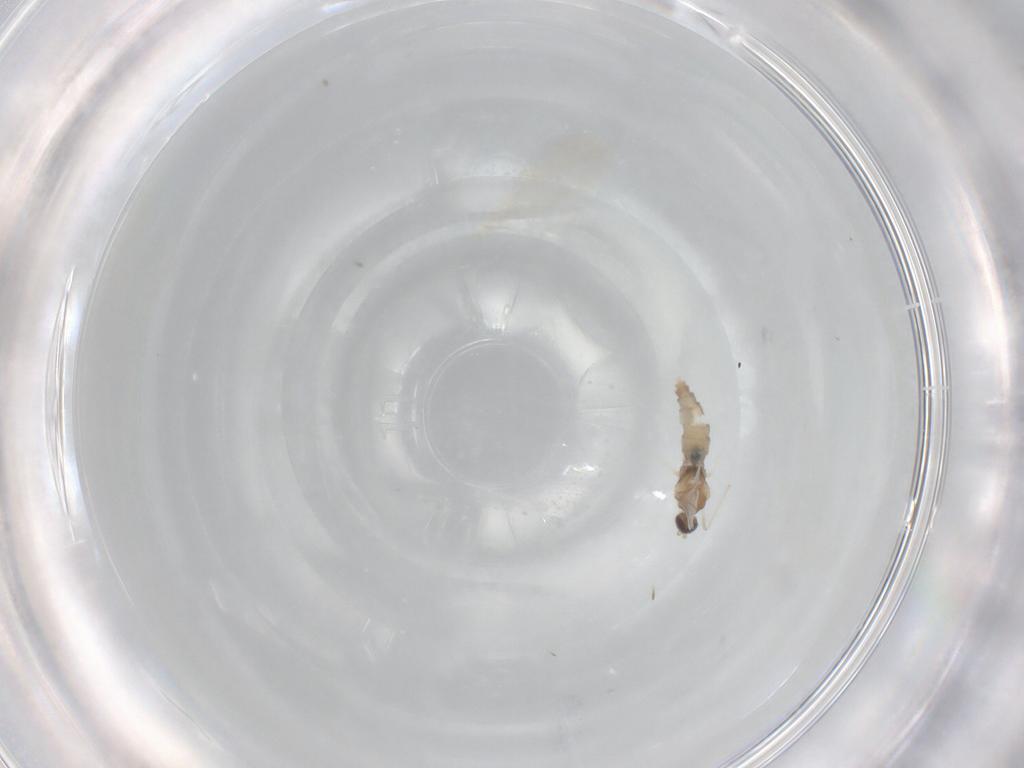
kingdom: Animalia
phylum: Arthropoda
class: Insecta
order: Diptera
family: Cecidomyiidae
